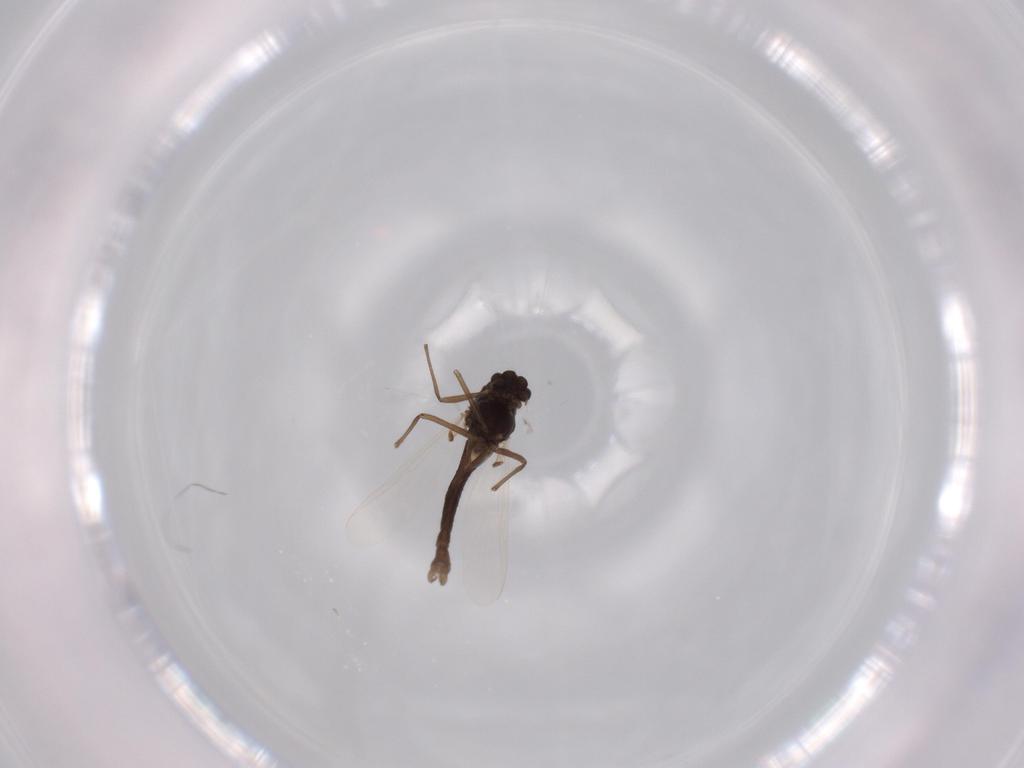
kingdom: Animalia
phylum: Arthropoda
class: Insecta
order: Diptera
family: Chironomidae
